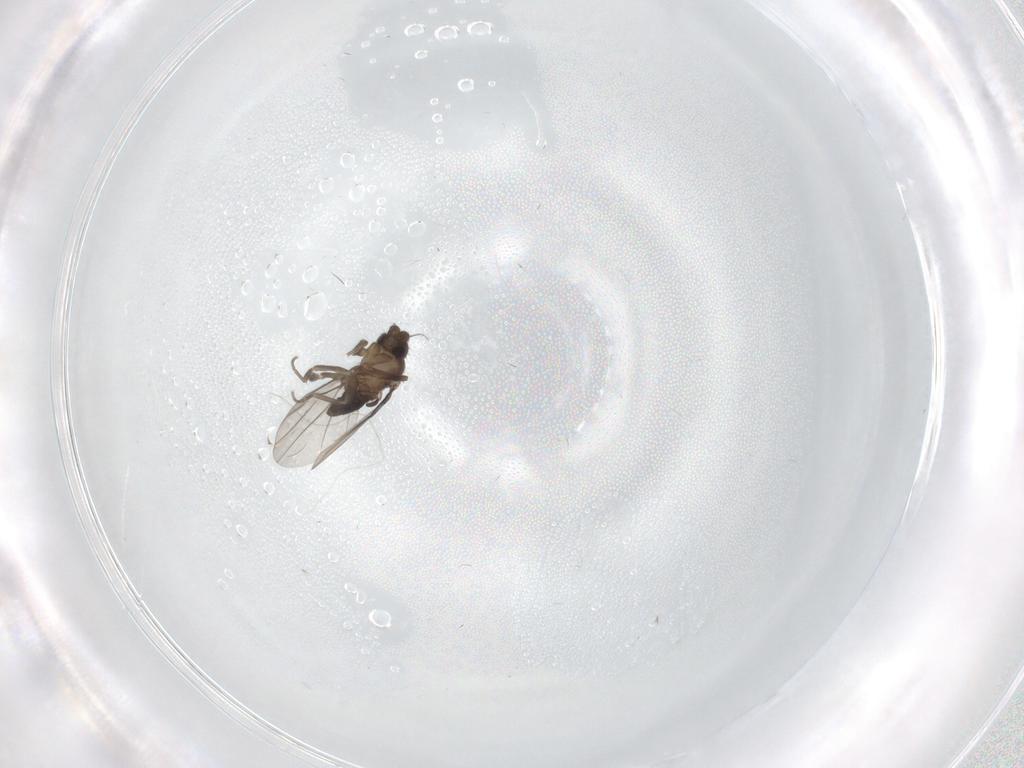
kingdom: Animalia
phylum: Arthropoda
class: Insecta
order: Diptera
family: Phoridae
